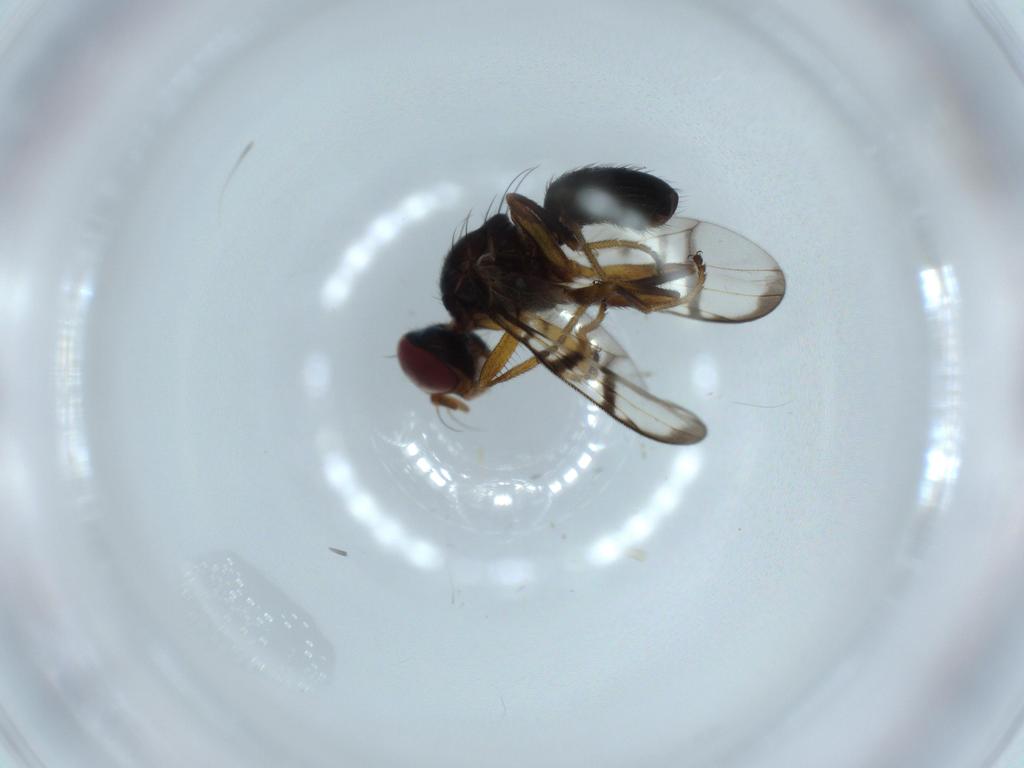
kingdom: Animalia
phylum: Arthropoda
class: Insecta
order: Diptera
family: Platystomatidae
